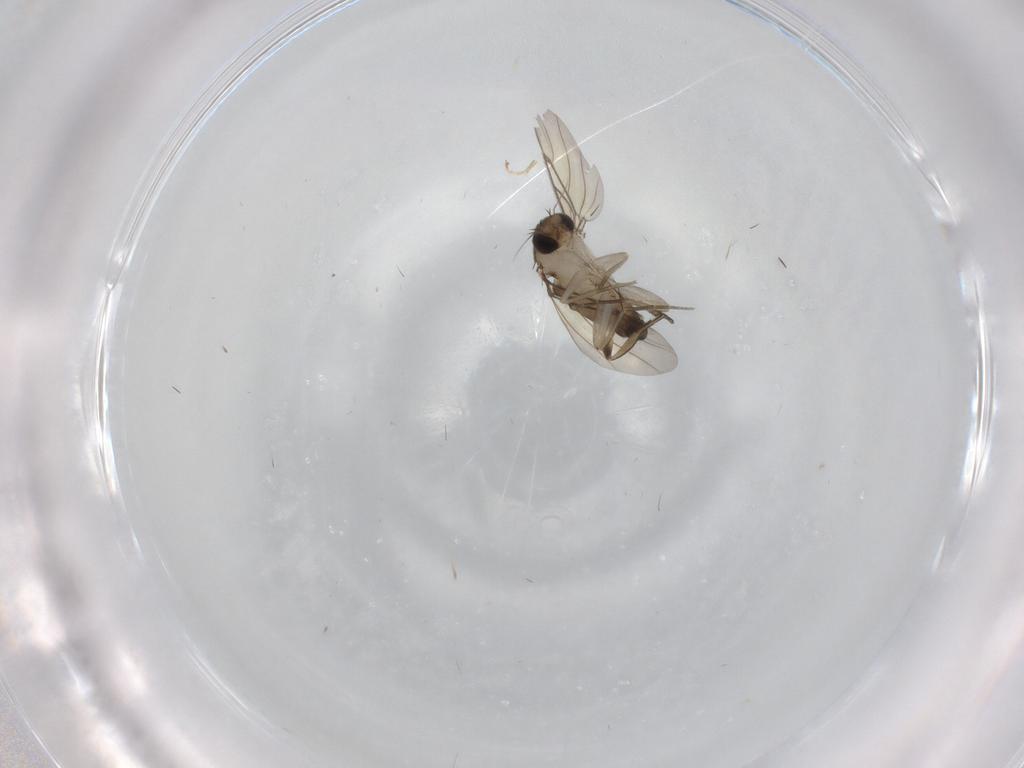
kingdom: Animalia
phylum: Arthropoda
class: Insecta
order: Diptera
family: Phoridae
